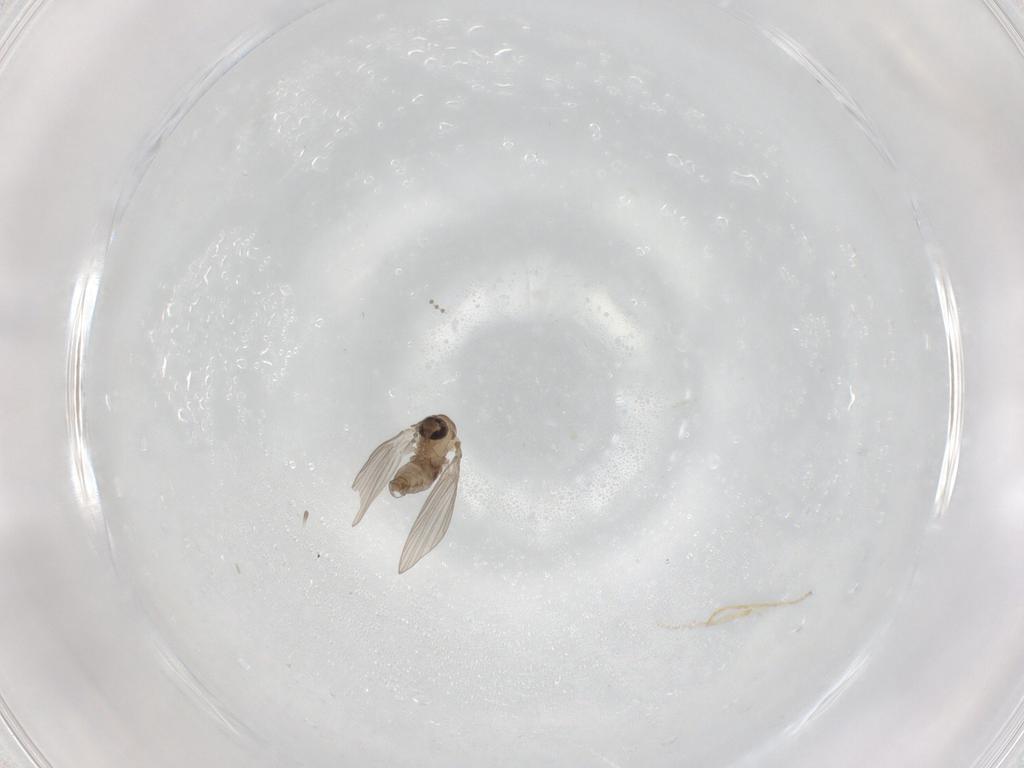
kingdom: Animalia
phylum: Arthropoda
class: Insecta
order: Diptera
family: Psychodidae
